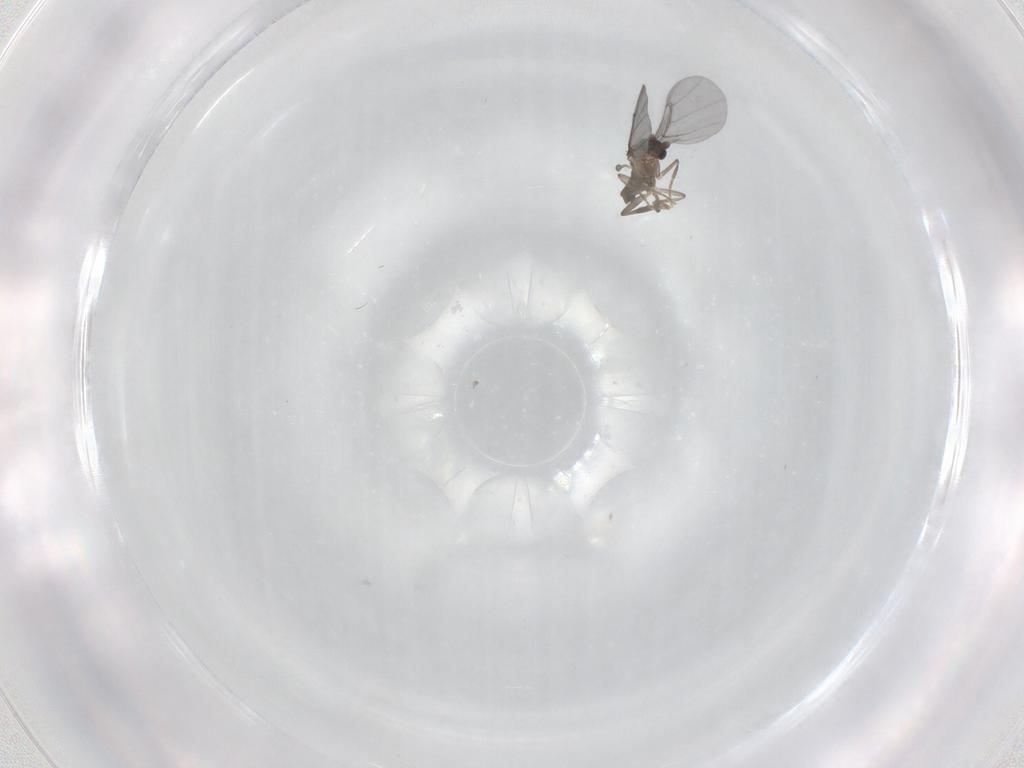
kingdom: Animalia
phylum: Arthropoda
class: Insecta
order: Diptera
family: Phoridae
